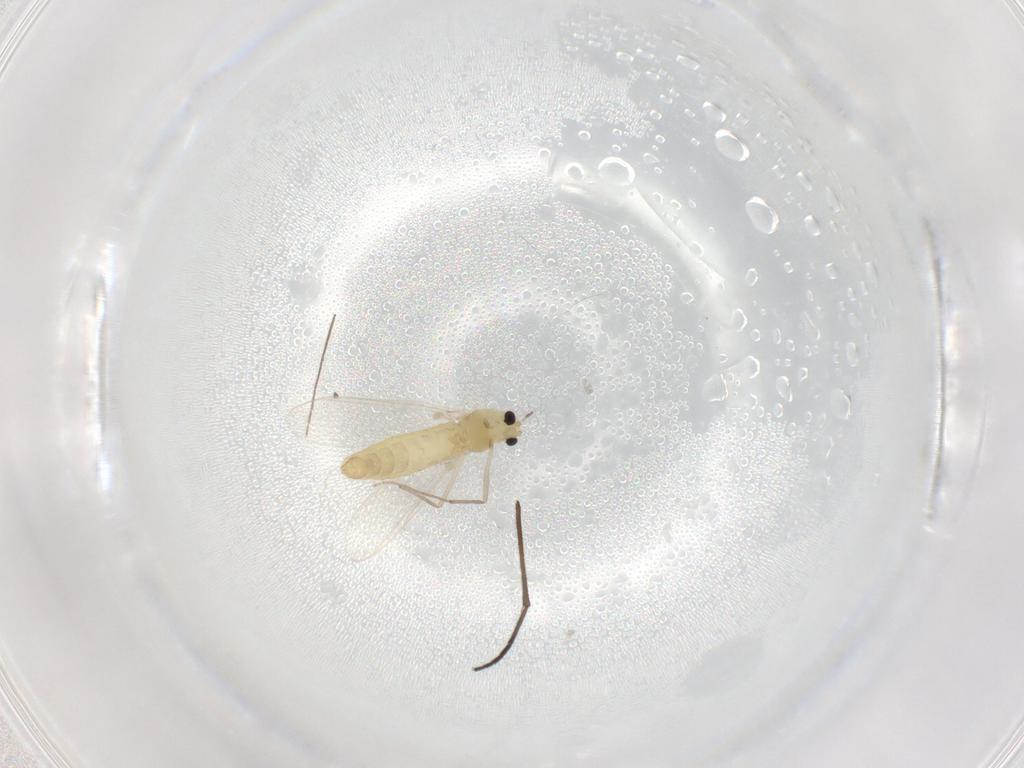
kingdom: Animalia
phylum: Arthropoda
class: Insecta
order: Diptera
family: Chironomidae
